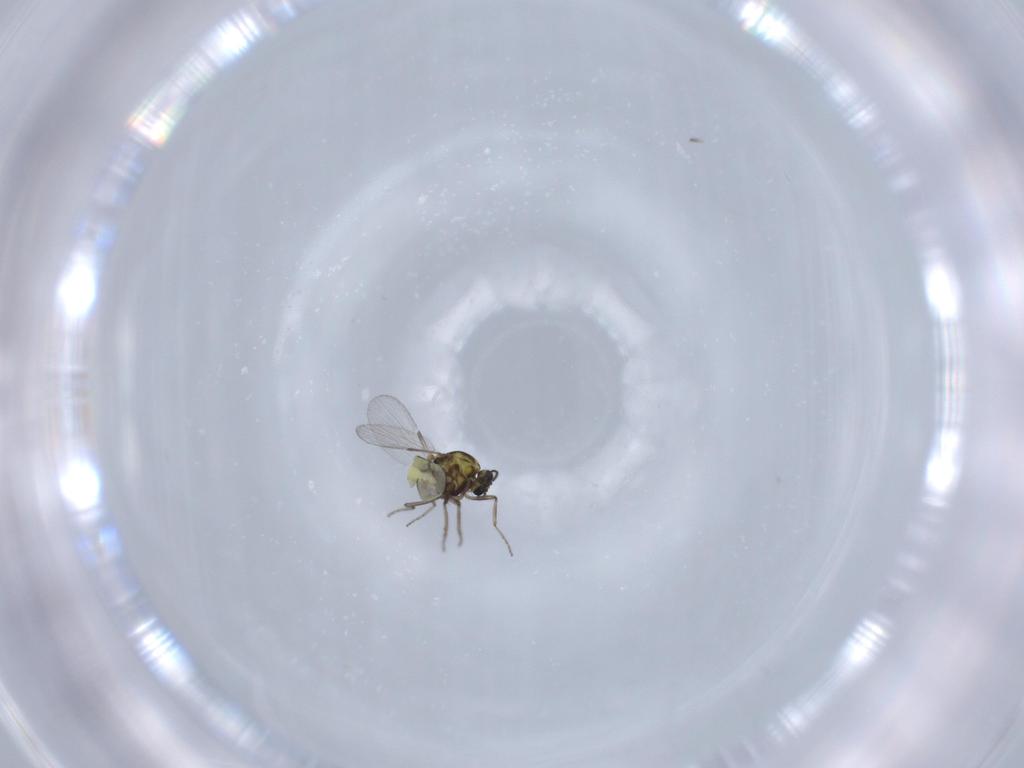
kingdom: Animalia
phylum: Arthropoda
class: Insecta
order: Diptera
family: Ceratopogonidae
